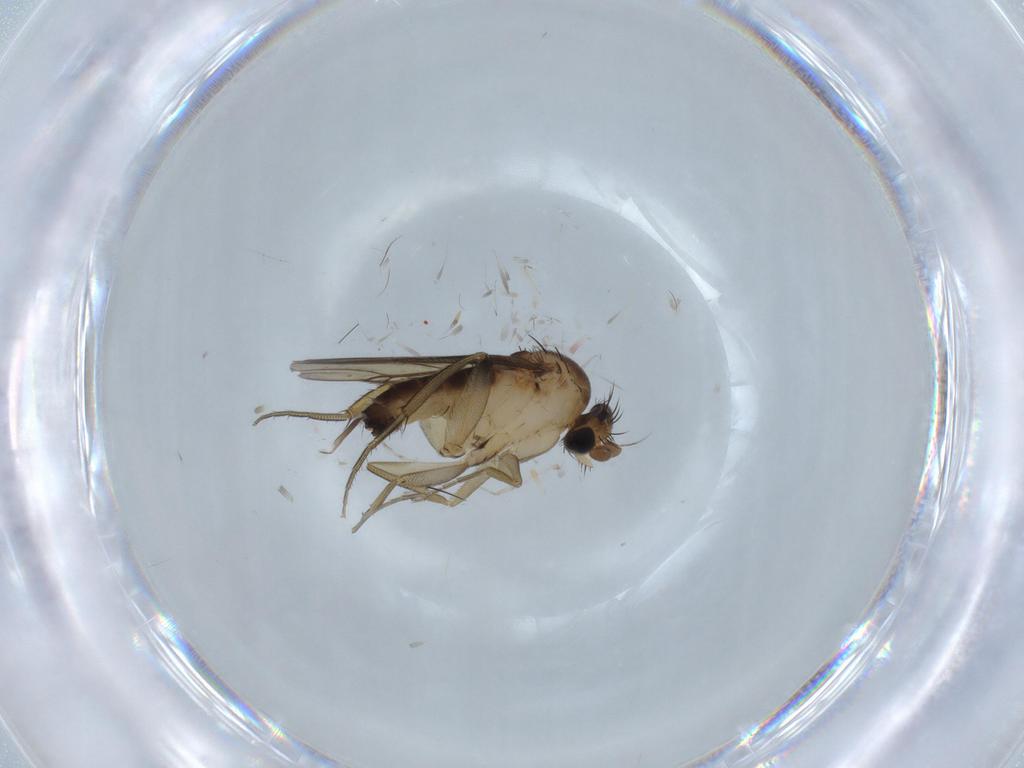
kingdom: Animalia
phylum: Arthropoda
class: Insecta
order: Diptera
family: Phoridae
